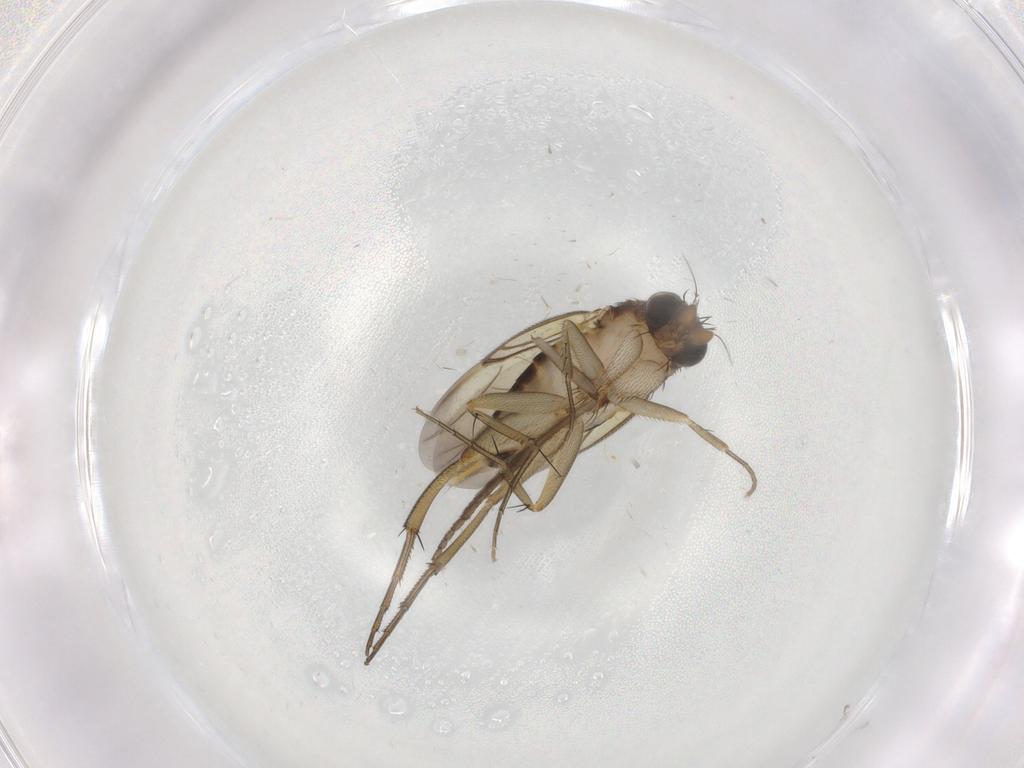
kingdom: Animalia
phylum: Arthropoda
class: Insecta
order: Diptera
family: Phoridae
